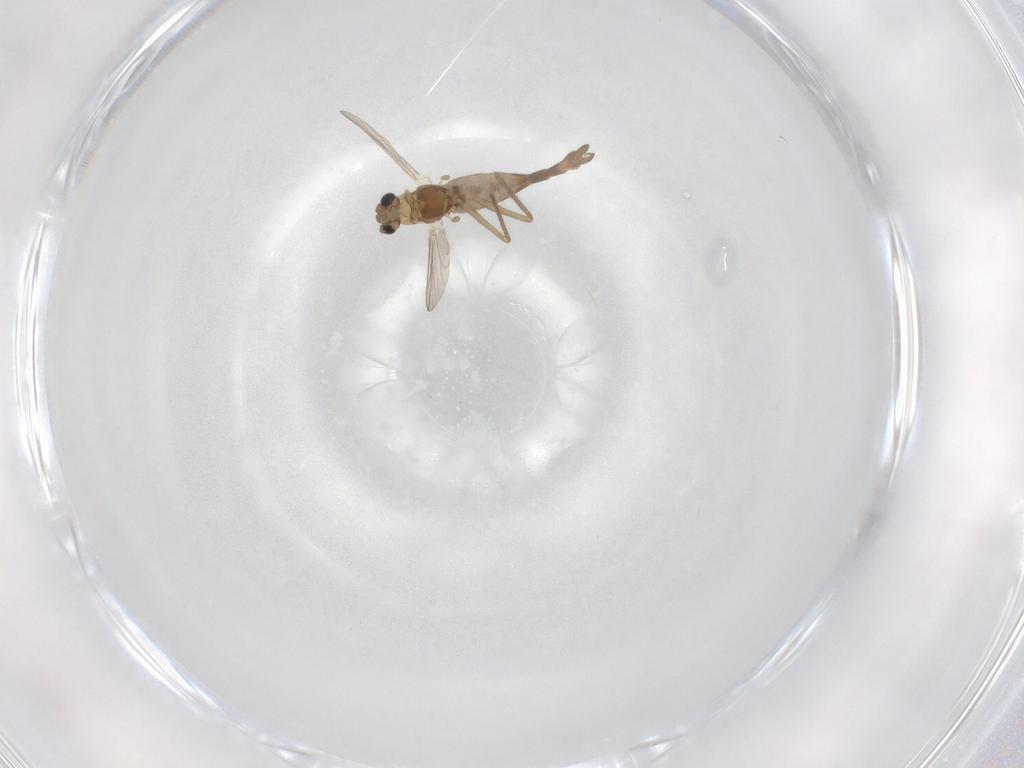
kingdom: Animalia
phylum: Arthropoda
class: Insecta
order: Diptera
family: Chironomidae
